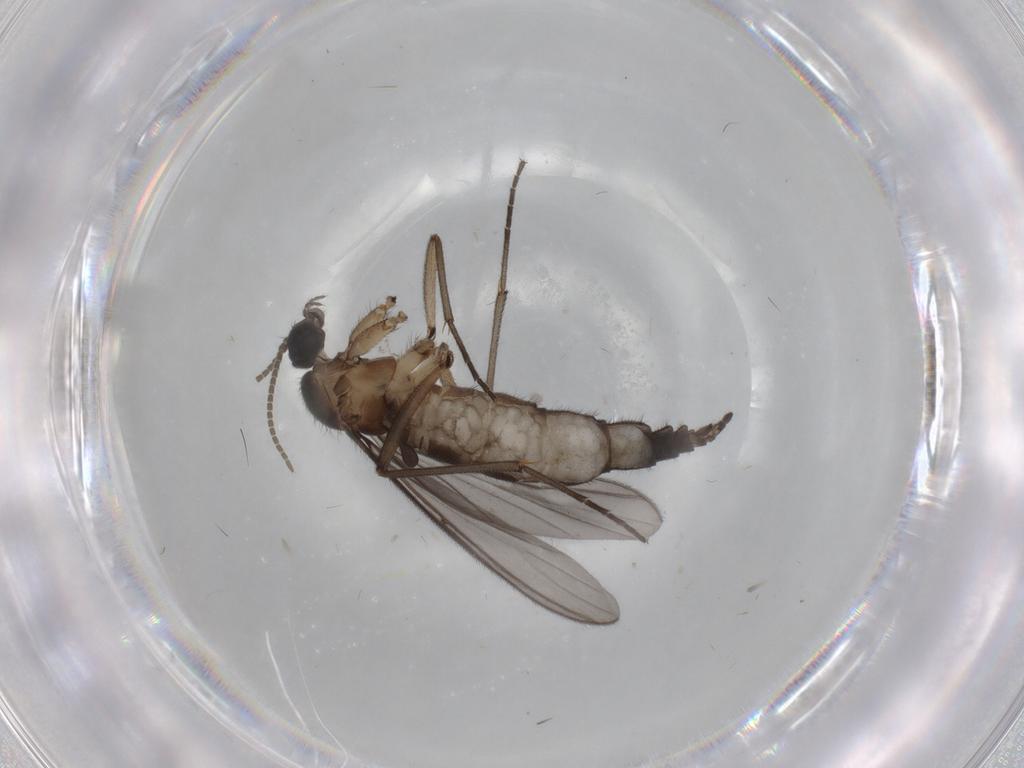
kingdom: Animalia
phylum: Arthropoda
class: Insecta
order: Diptera
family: Sciaridae
